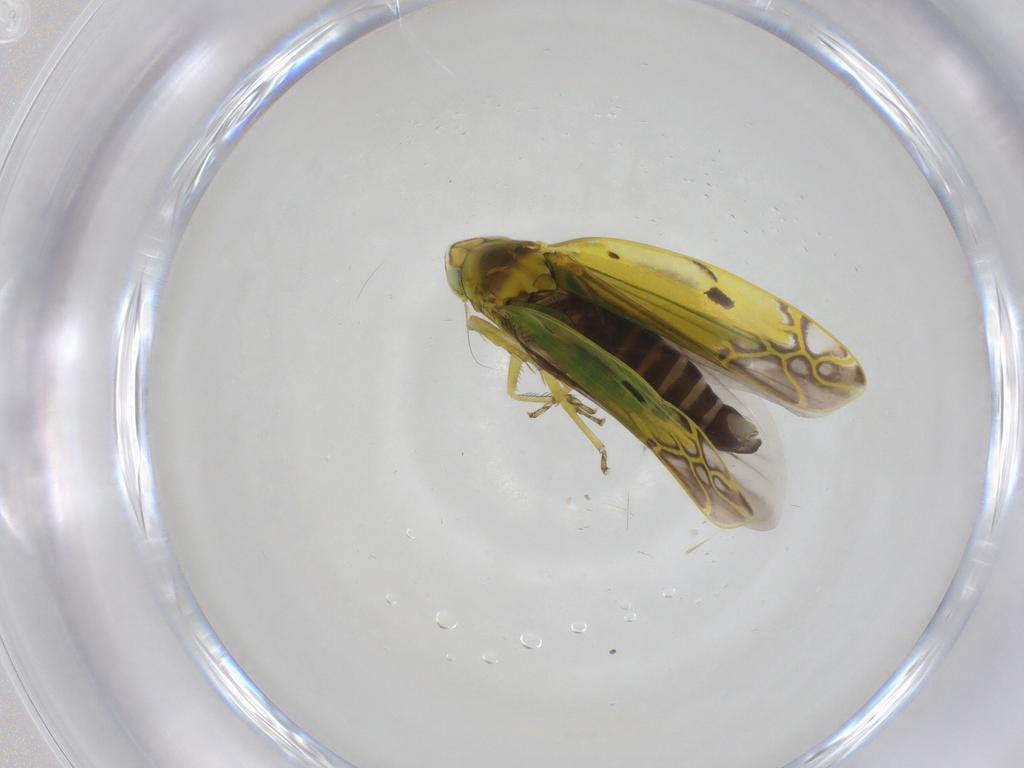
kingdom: Animalia
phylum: Arthropoda
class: Insecta
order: Hemiptera
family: Cicadellidae
